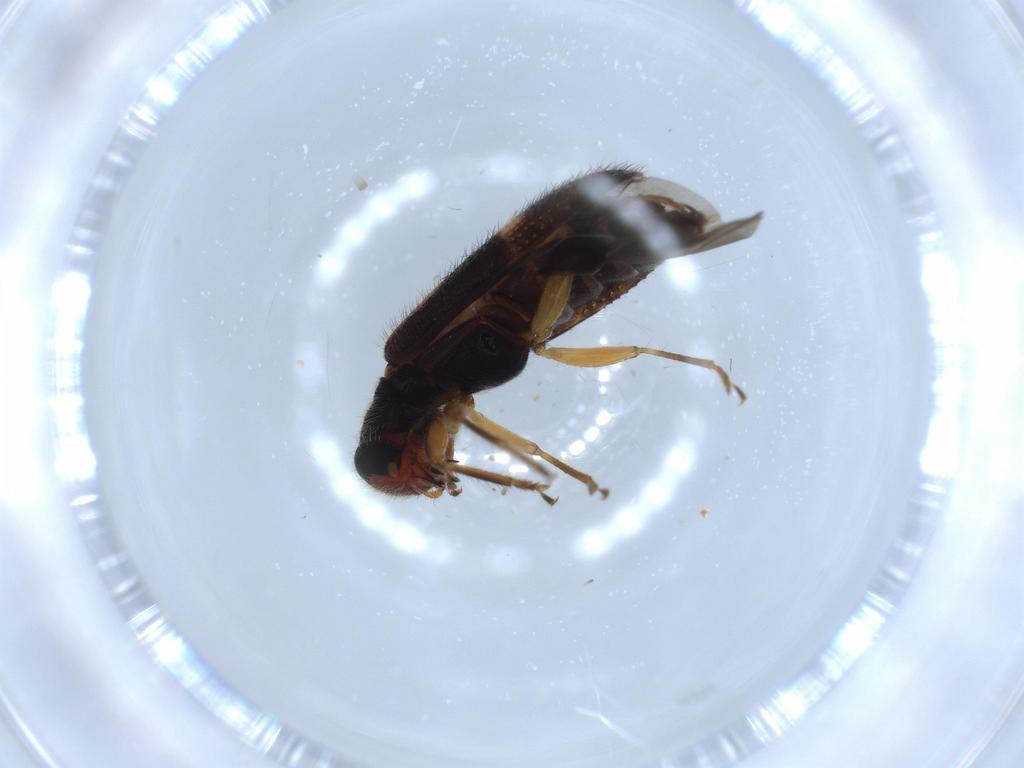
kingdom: Animalia
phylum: Arthropoda
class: Insecta
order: Coleoptera
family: Cleridae
